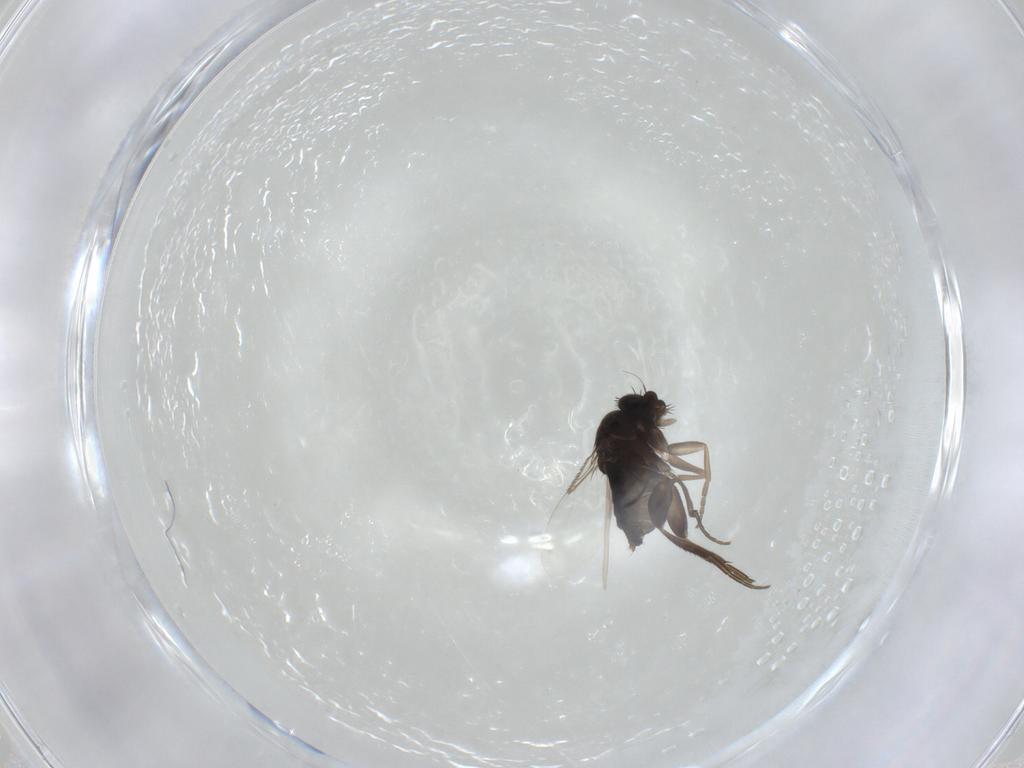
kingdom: Animalia
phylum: Arthropoda
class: Insecta
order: Diptera
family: Phoridae
